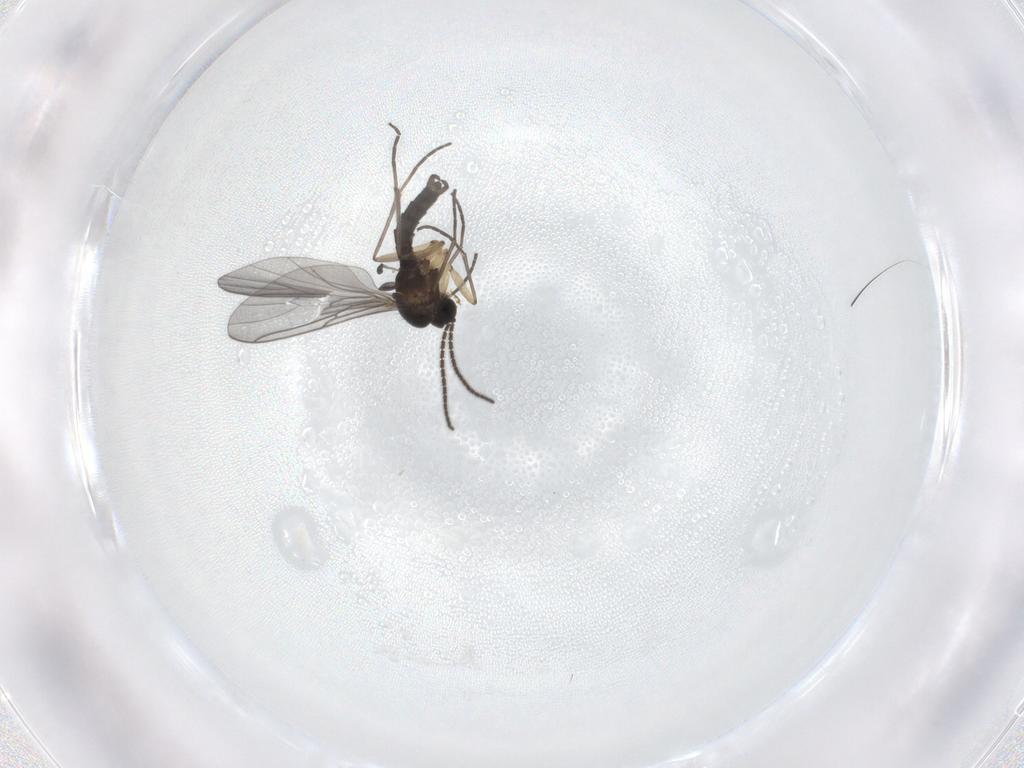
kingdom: Animalia
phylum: Arthropoda
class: Insecta
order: Diptera
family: Sciaridae
